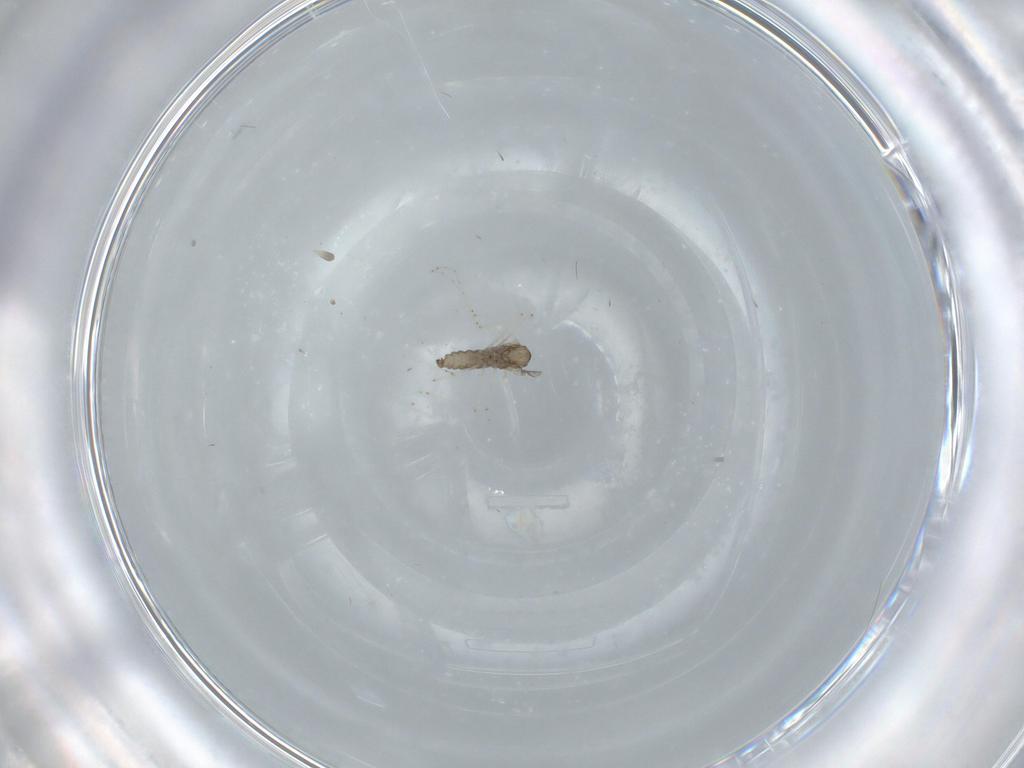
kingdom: Animalia
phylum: Arthropoda
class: Insecta
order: Diptera
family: Cecidomyiidae
